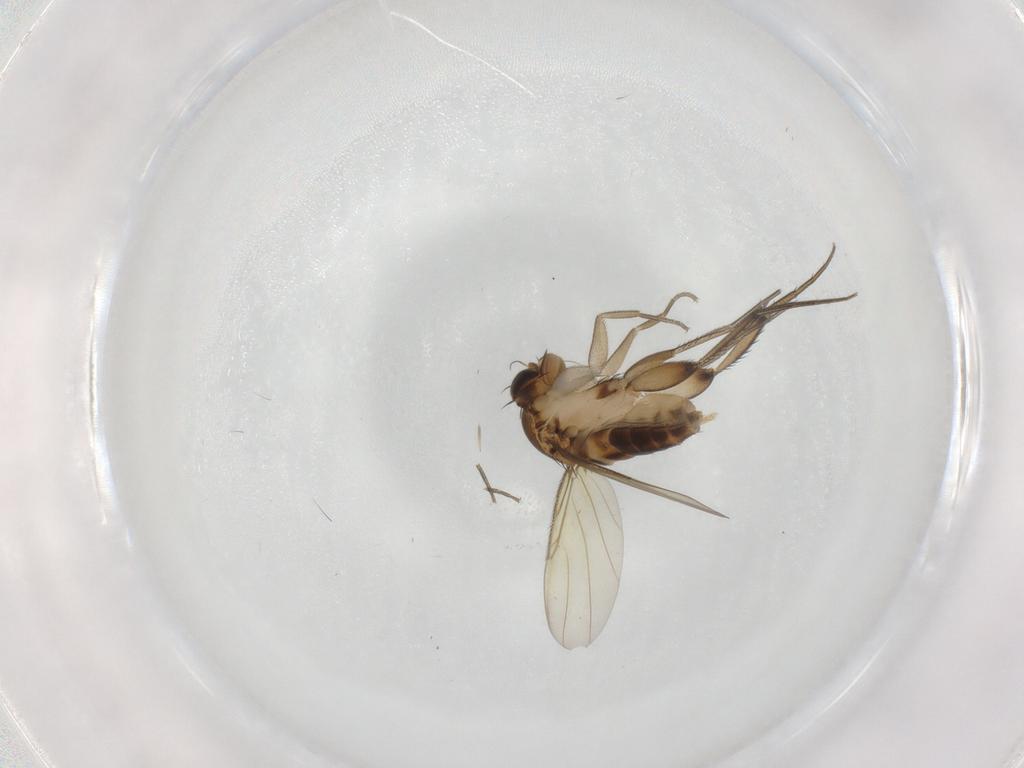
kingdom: Animalia
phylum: Arthropoda
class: Insecta
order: Diptera
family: Phoridae
